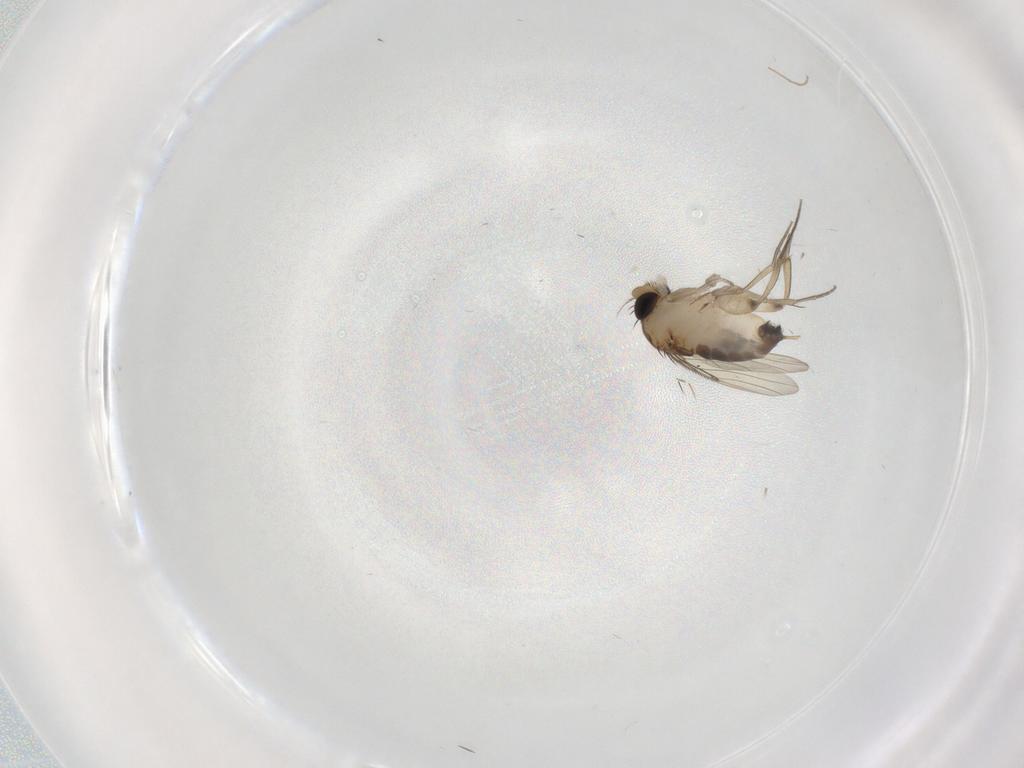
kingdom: Animalia
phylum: Arthropoda
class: Insecta
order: Diptera
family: Phoridae
